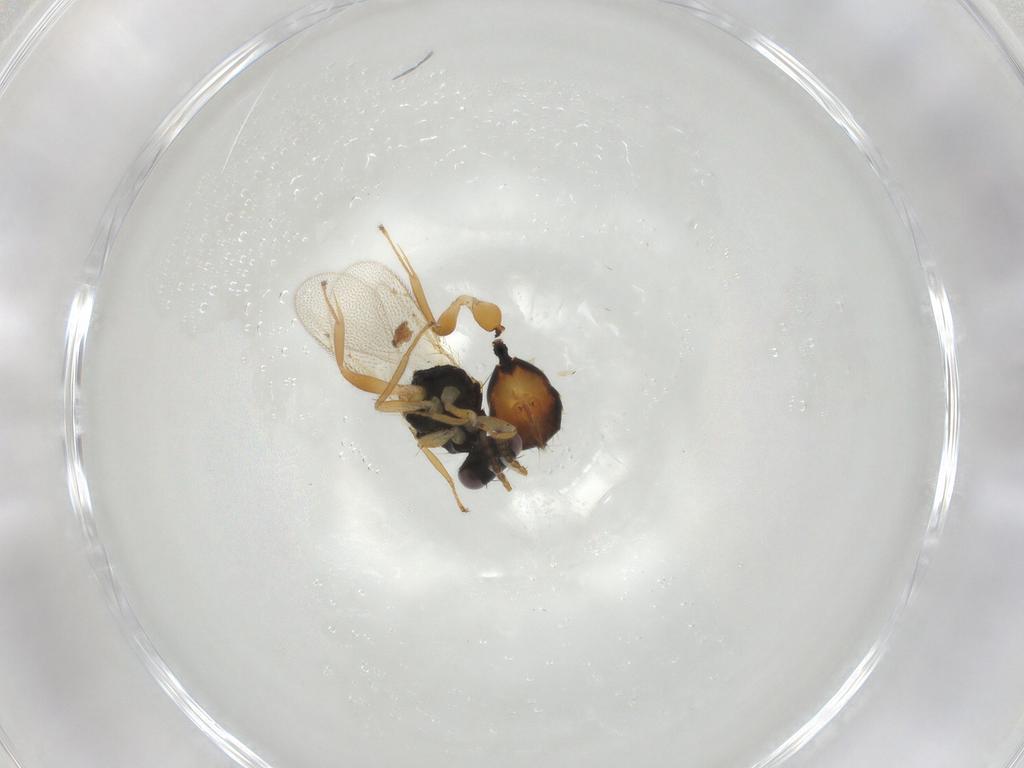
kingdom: Animalia
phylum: Arthropoda
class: Insecta
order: Hymenoptera
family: Eulophidae
